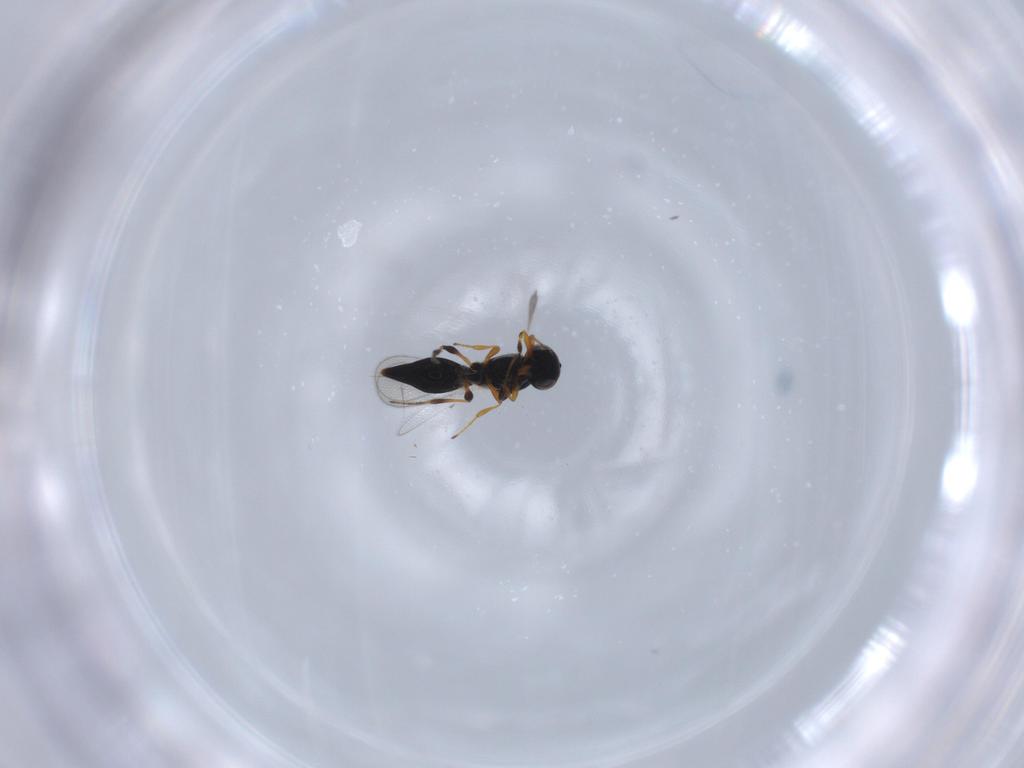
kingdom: Animalia
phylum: Arthropoda
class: Insecta
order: Hymenoptera
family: Platygastridae
